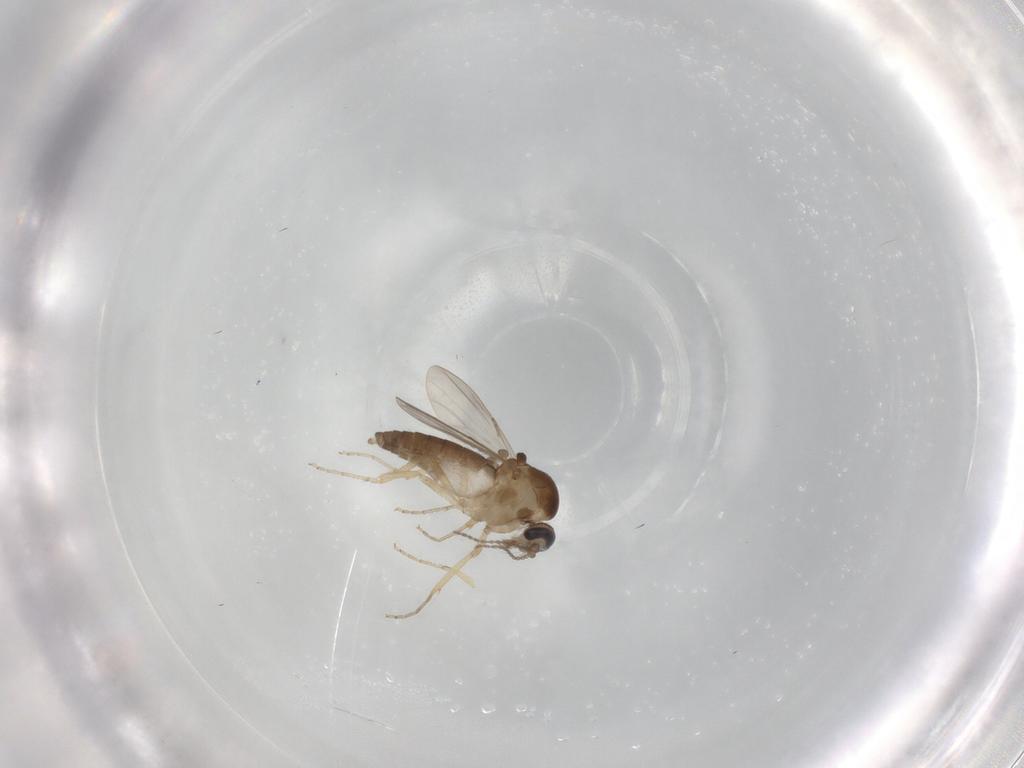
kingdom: Animalia
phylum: Arthropoda
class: Insecta
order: Diptera
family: Ceratopogonidae
